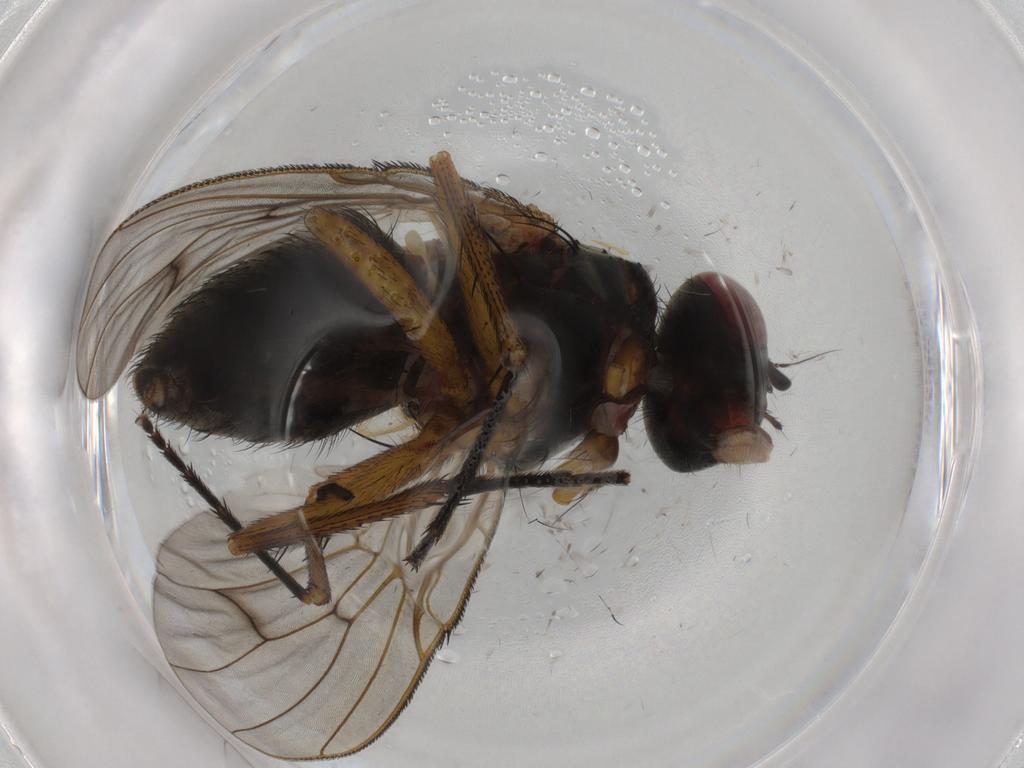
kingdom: Animalia
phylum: Arthropoda
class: Insecta
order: Diptera
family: Muscidae
